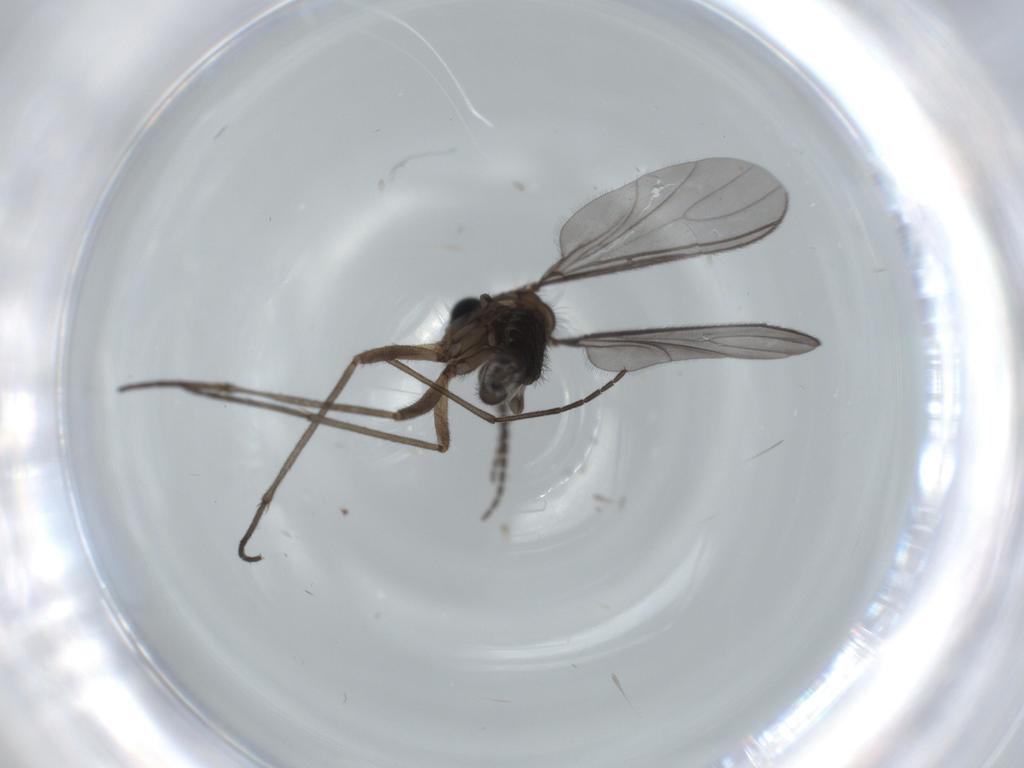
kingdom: Animalia
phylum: Arthropoda
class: Insecta
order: Diptera
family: Sciaridae
